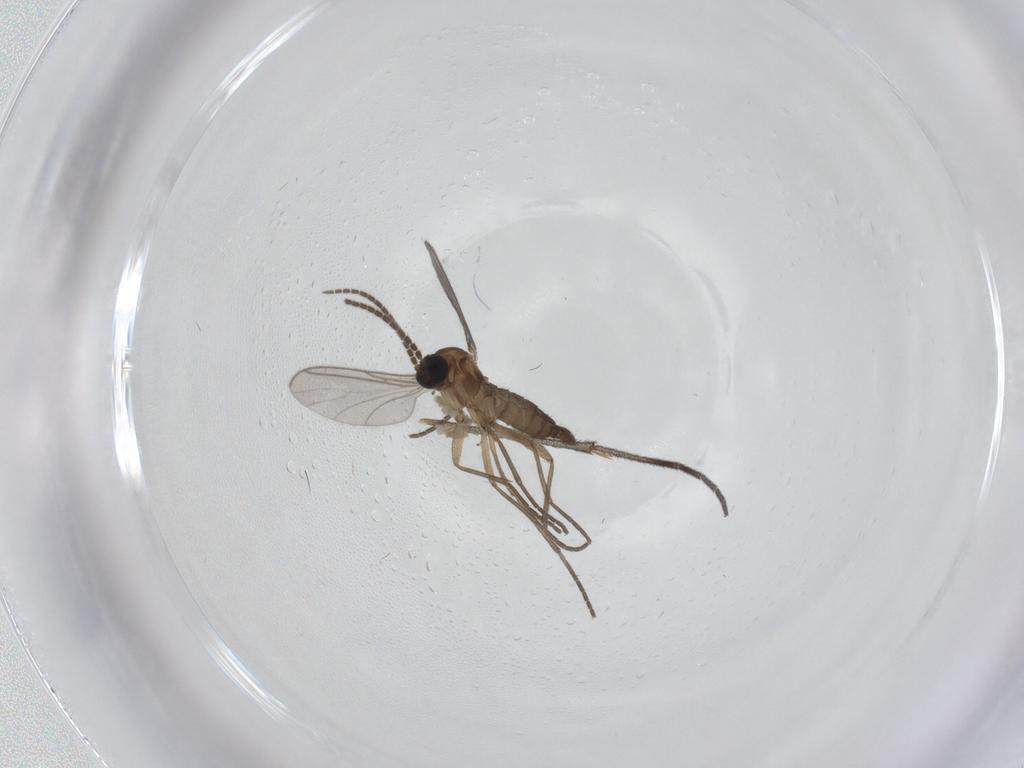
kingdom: Animalia
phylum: Arthropoda
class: Insecta
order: Diptera
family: Sciaridae
